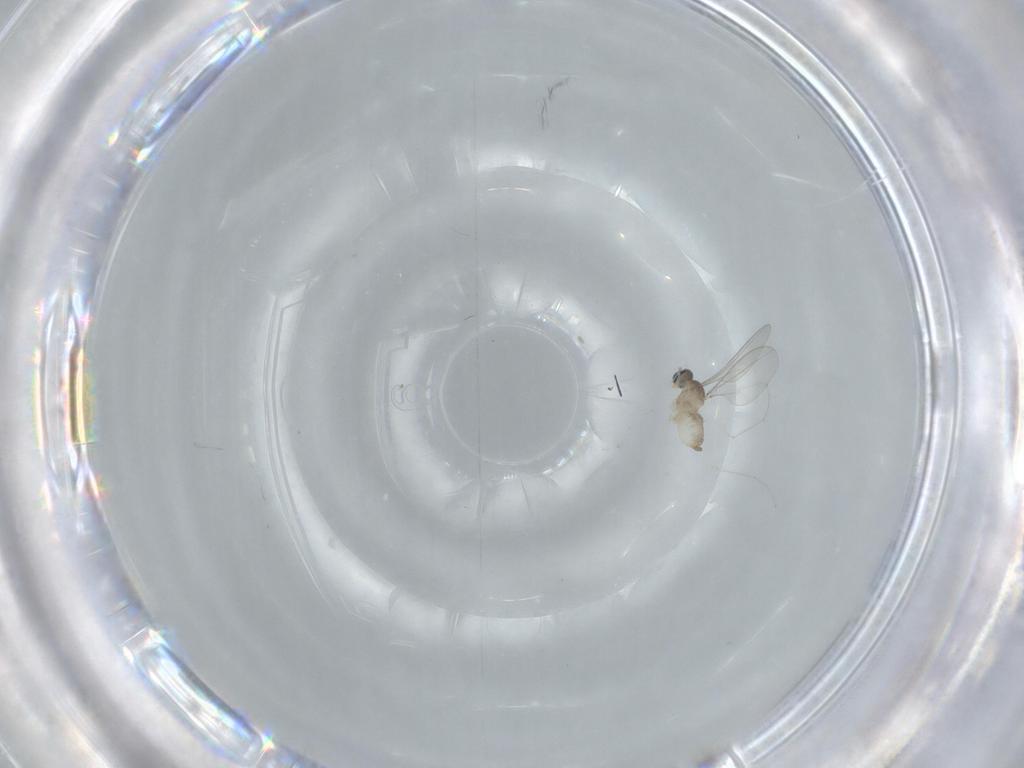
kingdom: Animalia
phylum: Arthropoda
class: Insecta
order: Diptera
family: Cecidomyiidae
